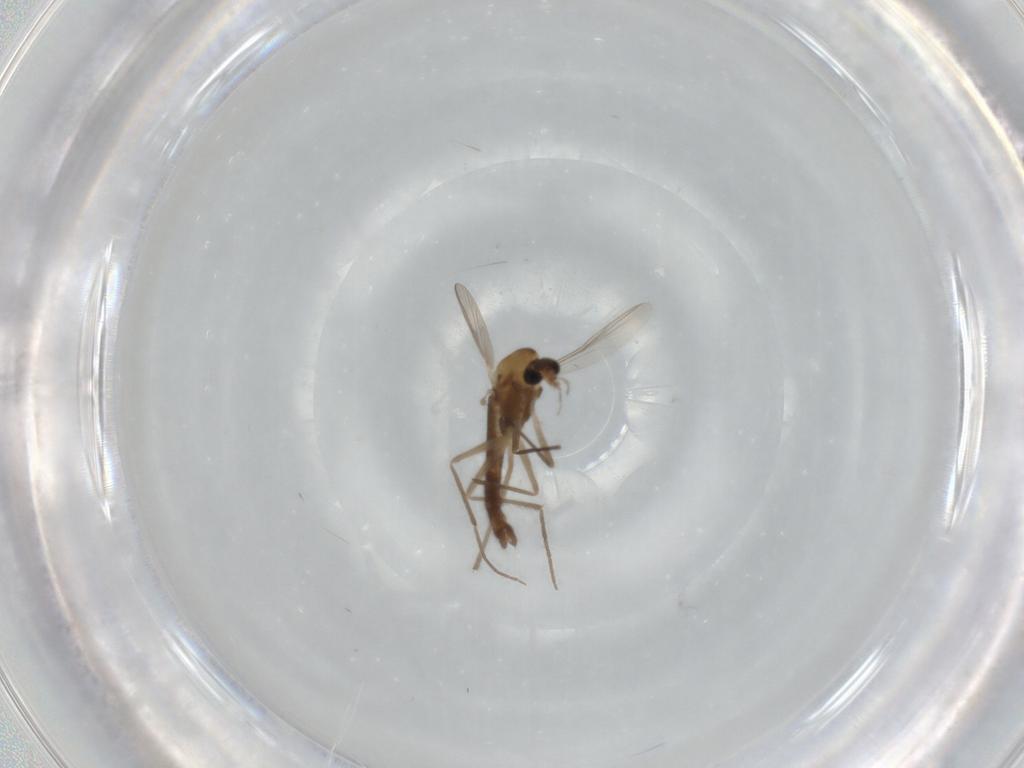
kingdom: Animalia
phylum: Arthropoda
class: Insecta
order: Diptera
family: Chironomidae
